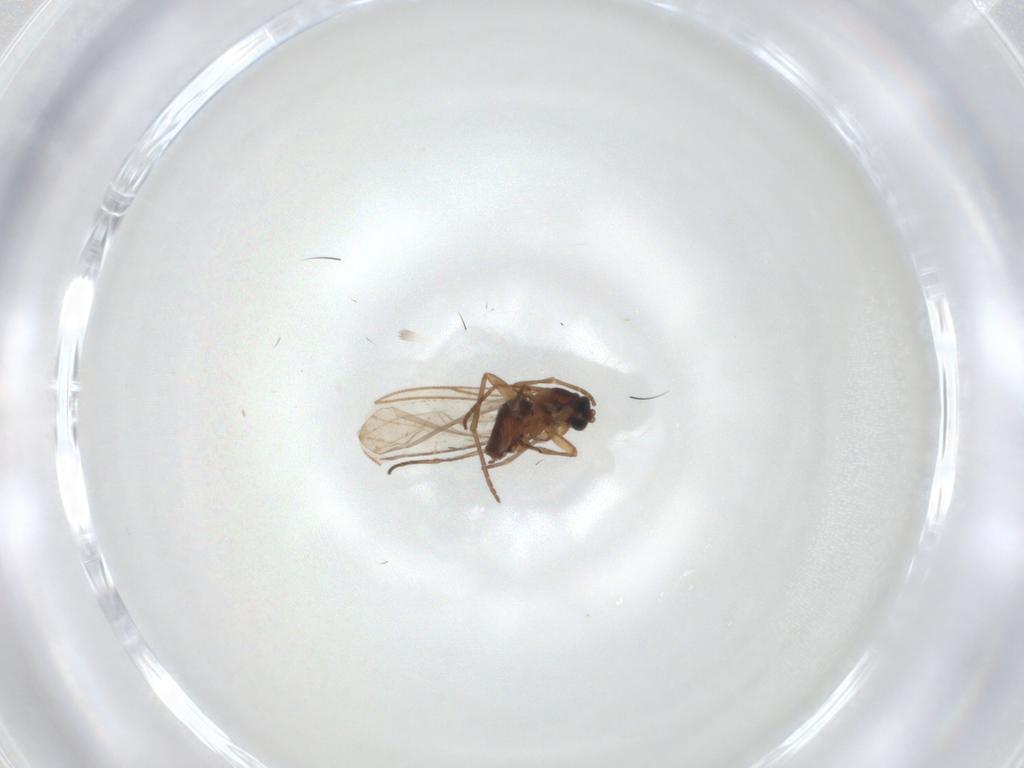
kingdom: Animalia
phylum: Arthropoda
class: Insecta
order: Diptera
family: Ceratopogonidae
